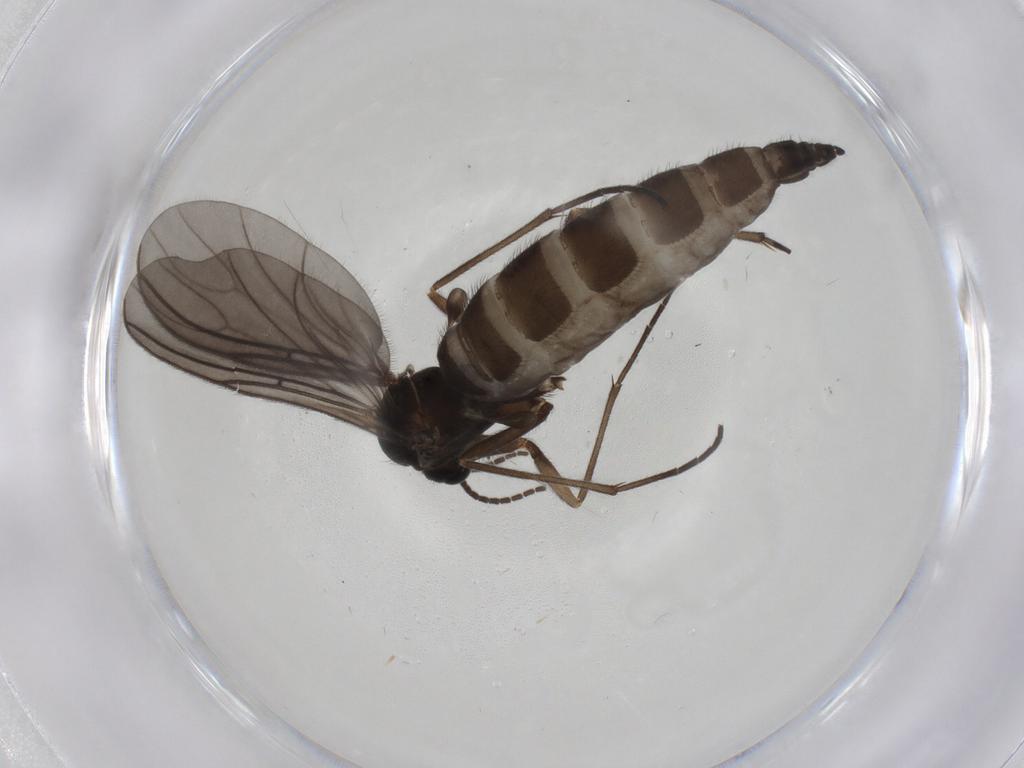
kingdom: Animalia
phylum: Arthropoda
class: Insecta
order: Diptera
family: Sciaridae
